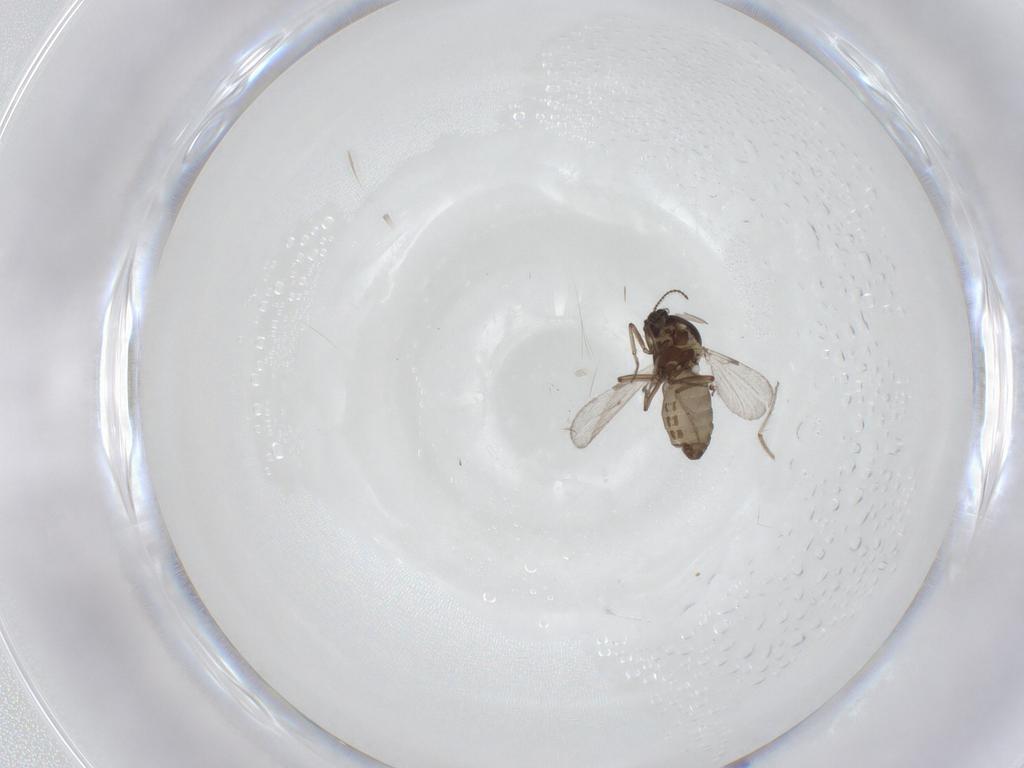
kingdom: Animalia
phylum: Arthropoda
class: Insecta
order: Diptera
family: Ceratopogonidae
